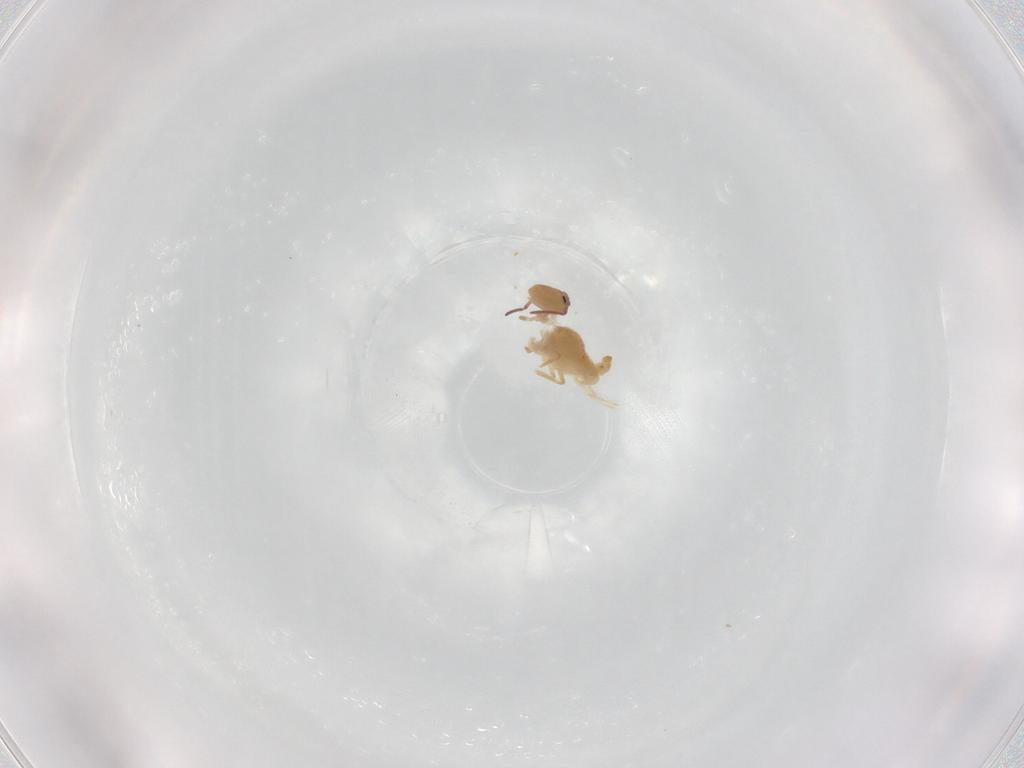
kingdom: Animalia
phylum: Arthropoda
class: Collembola
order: Symphypleona
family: Bourletiellidae
